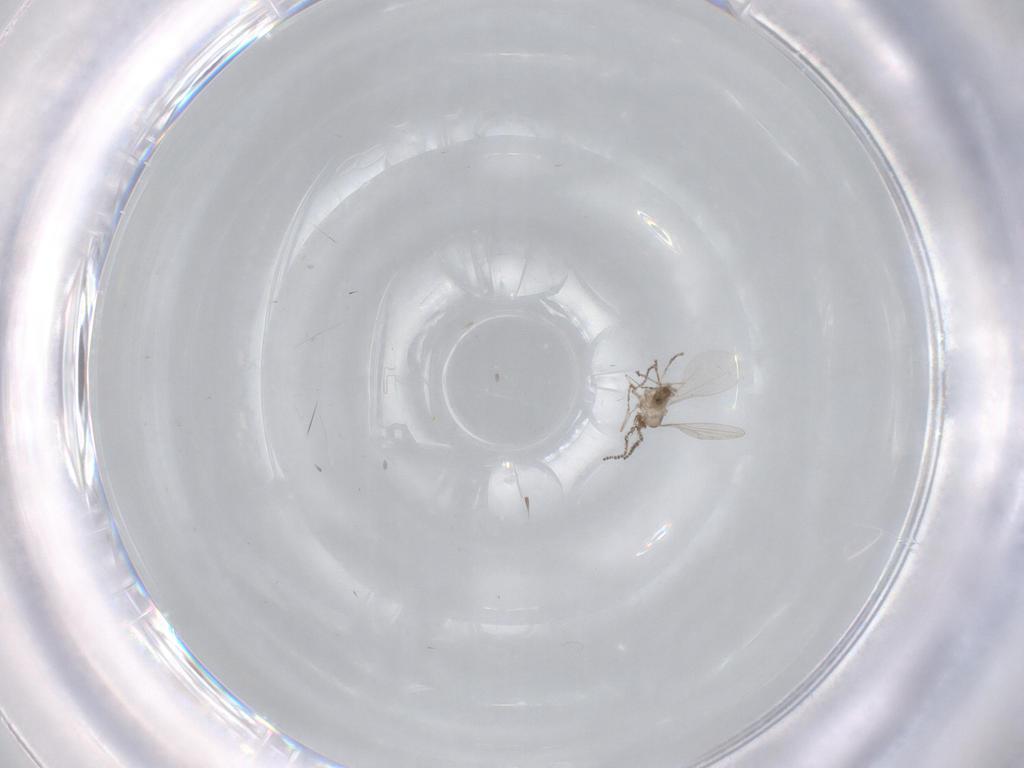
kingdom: Animalia
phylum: Arthropoda
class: Insecta
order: Diptera
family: Cecidomyiidae
